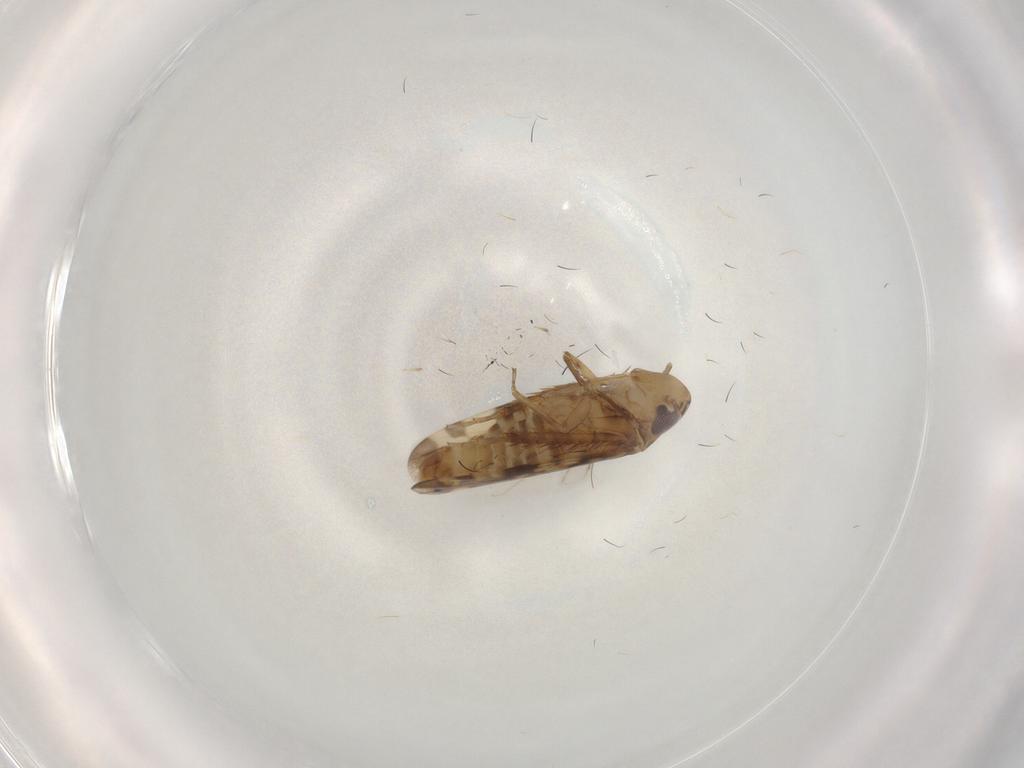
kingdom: Animalia
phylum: Arthropoda
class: Insecta
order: Hemiptera
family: Cicadellidae
